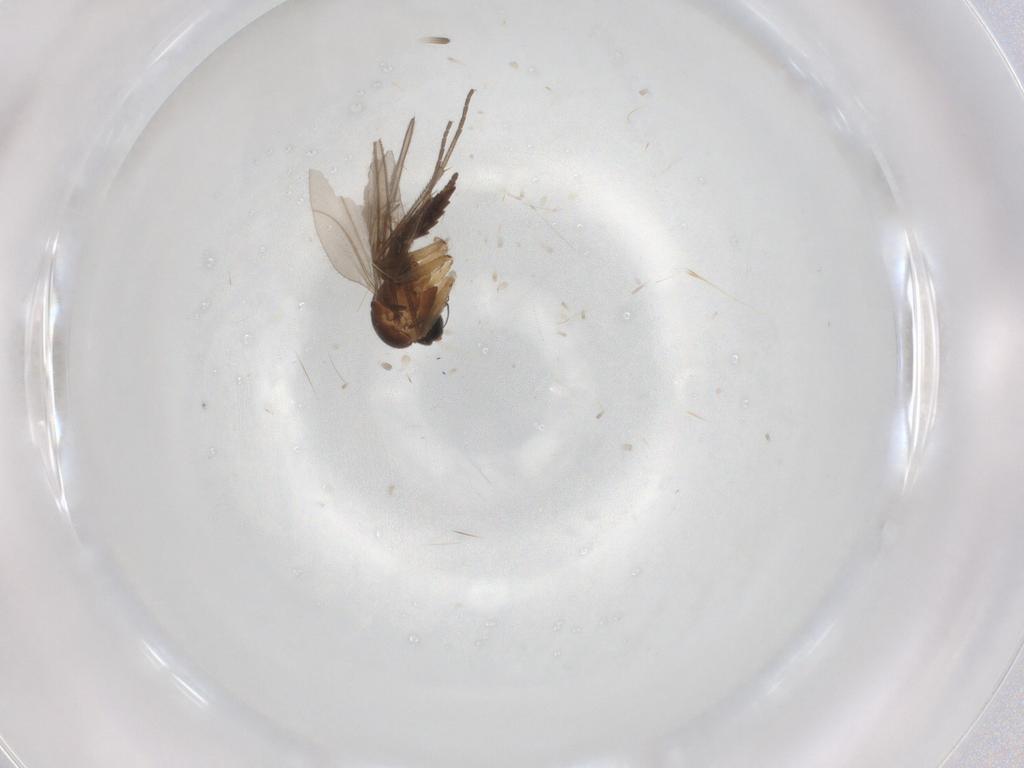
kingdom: Animalia
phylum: Arthropoda
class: Insecta
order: Diptera
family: Sciaridae
